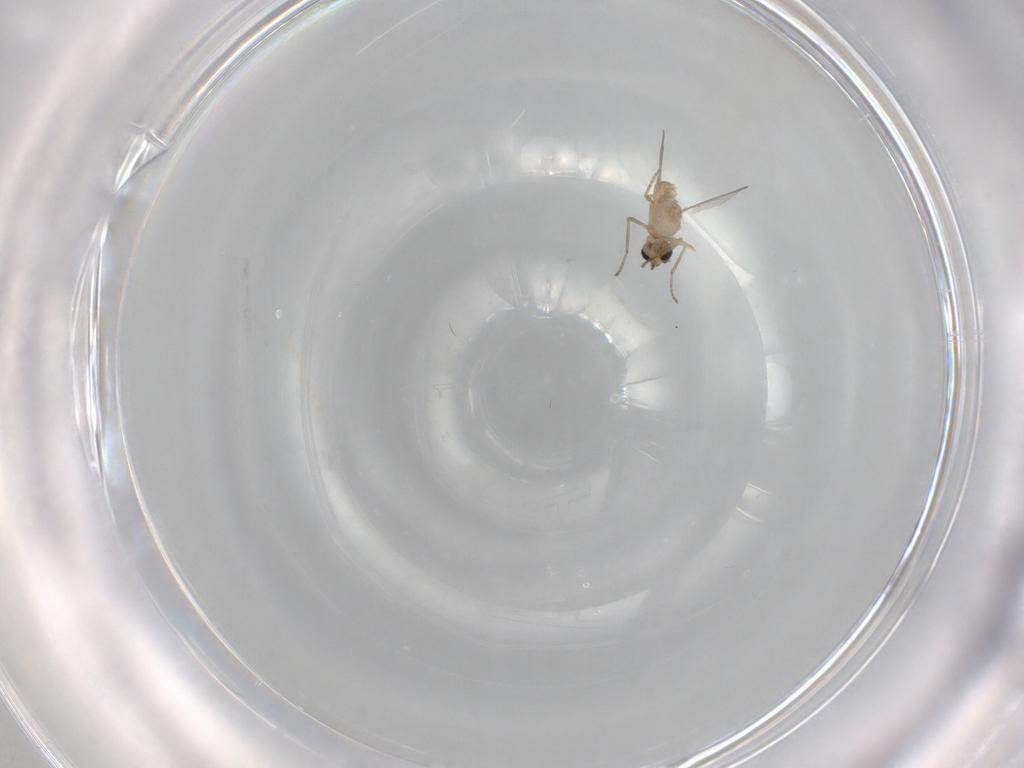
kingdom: Animalia
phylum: Arthropoda
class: Insecta
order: Diptera
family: Ceratopogonidae
